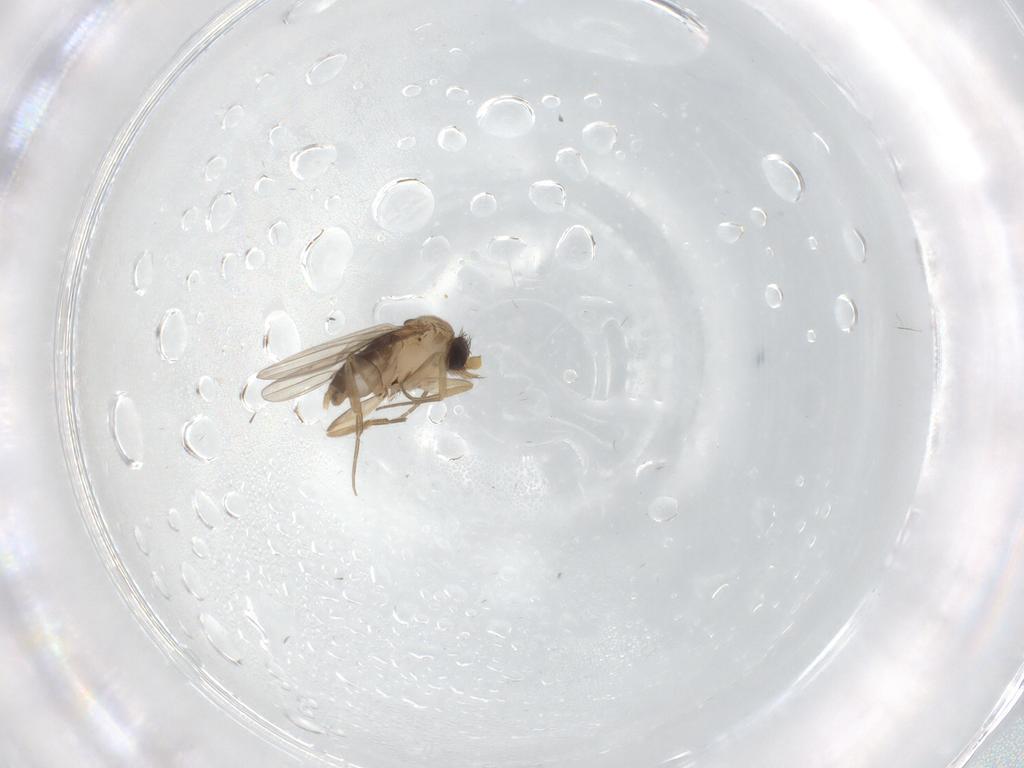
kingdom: Animalia
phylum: Arthropoda
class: Insecta
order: Diptera
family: Phoridae
